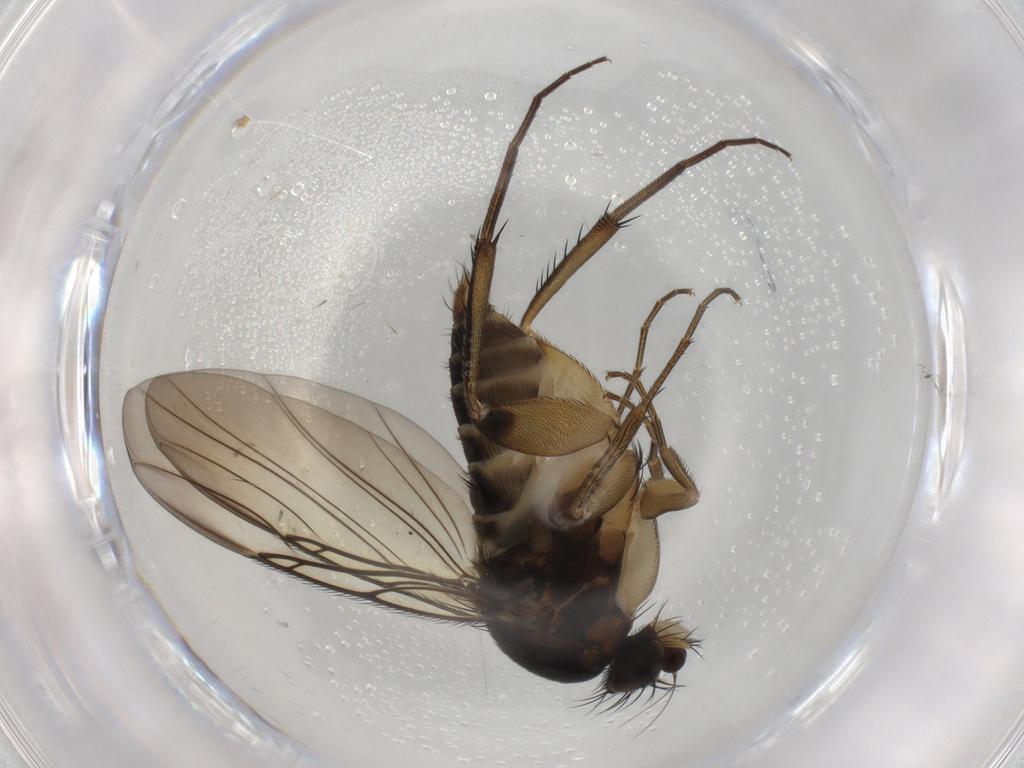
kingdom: Animalia
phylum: Arthropoda
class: Insecta
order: Diptera
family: Phoridae
